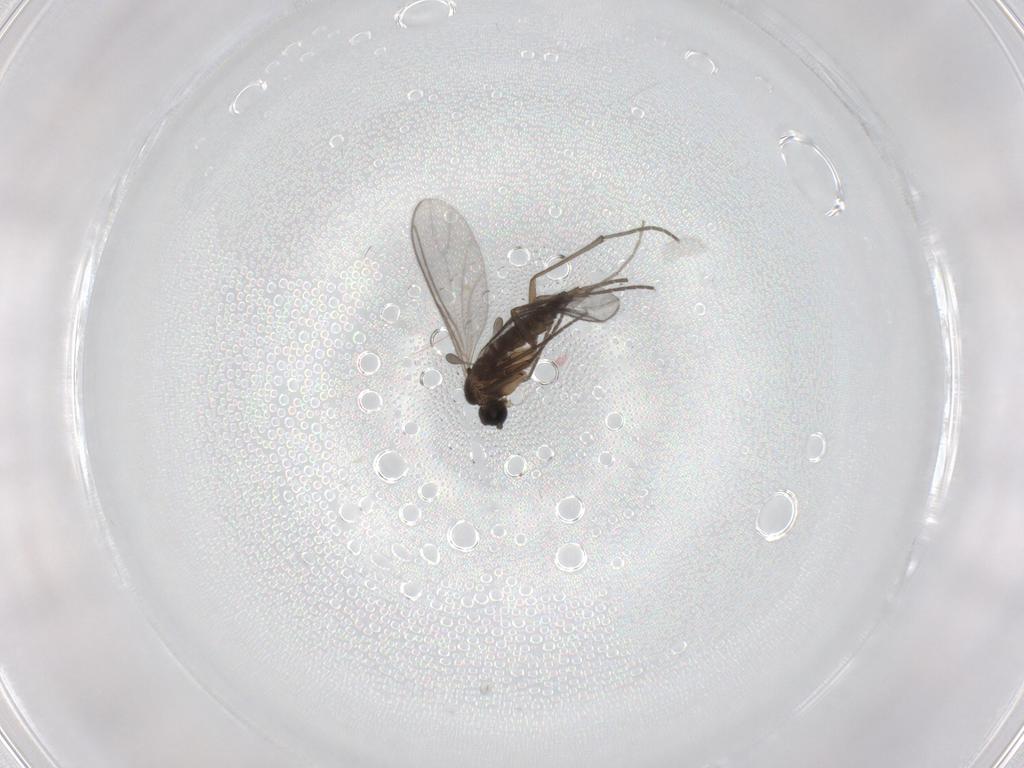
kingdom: Animalia
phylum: Arthropoda
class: Insecta
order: Diptera
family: Sciaridae
